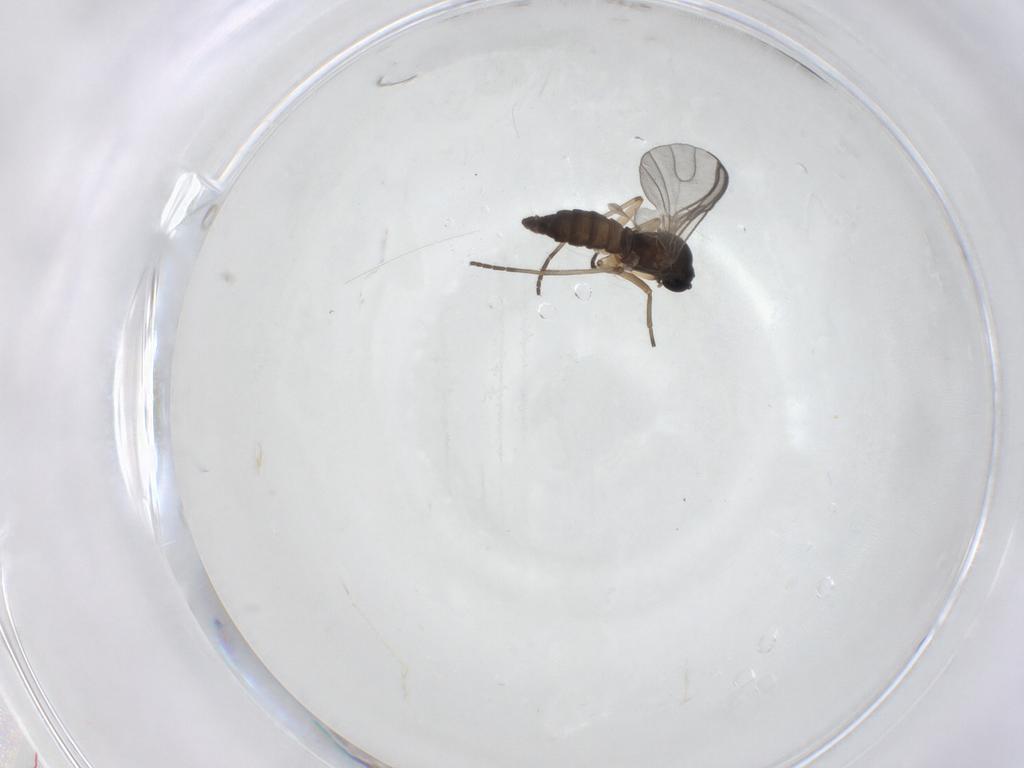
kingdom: Animalia
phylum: Arthropoda
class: Insecta
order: Diptera
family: Sciaridae
